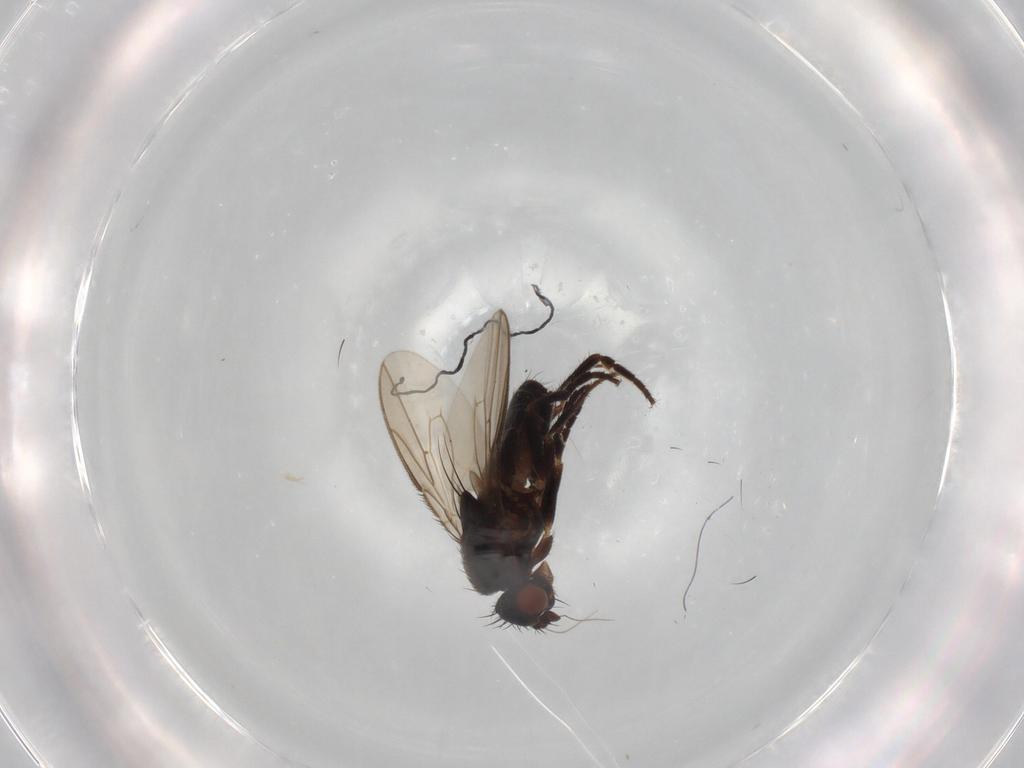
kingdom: Animalia
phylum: Arthropoda
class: Insecta
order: Diptera
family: Sphaeroceridae
